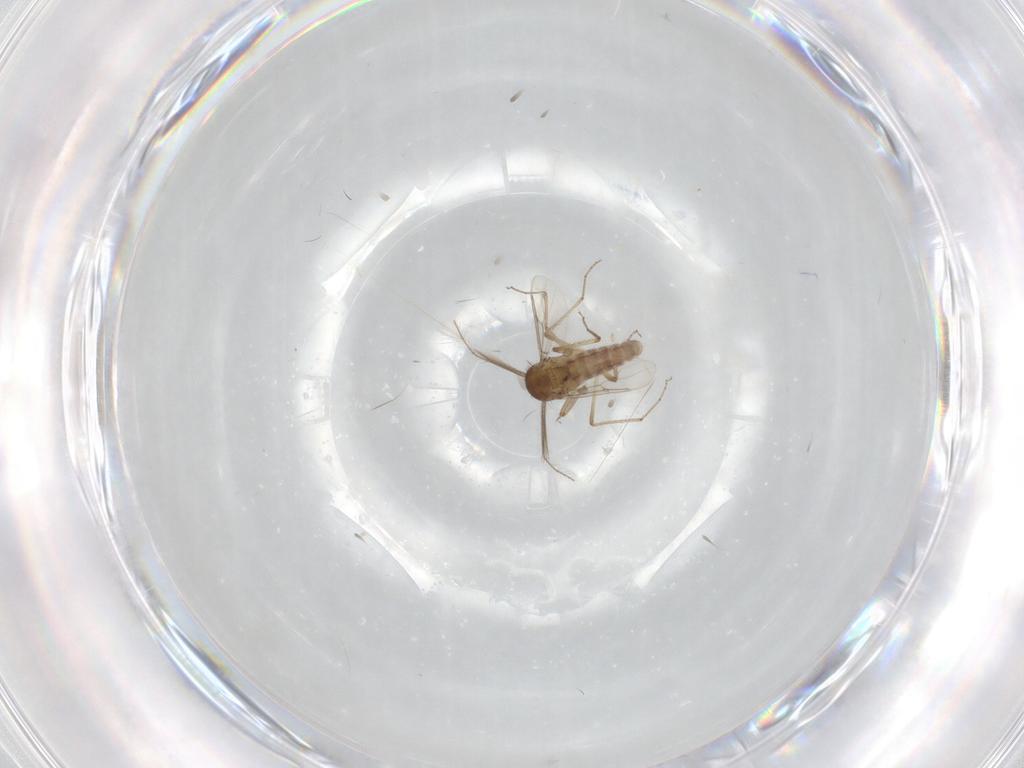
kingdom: Animalia
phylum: Arthropoda
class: Insecta
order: Diptera
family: Ceratopogonidae
